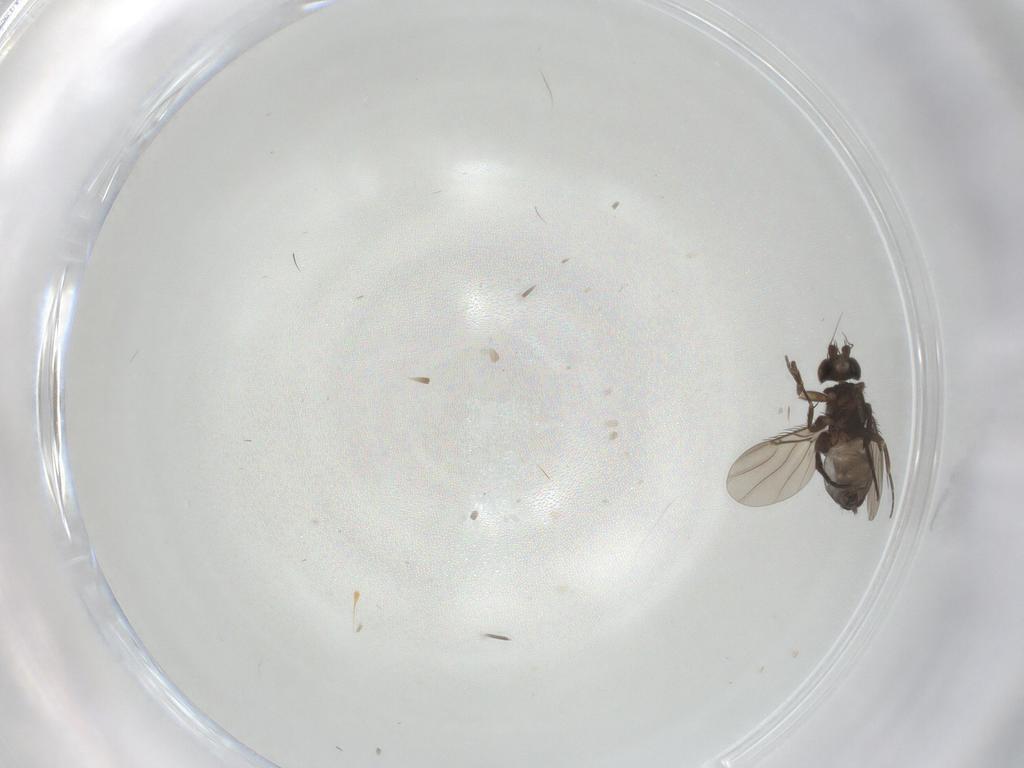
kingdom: Animalia
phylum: Arthropoda
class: Insecta
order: Diptera
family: Phoridae
